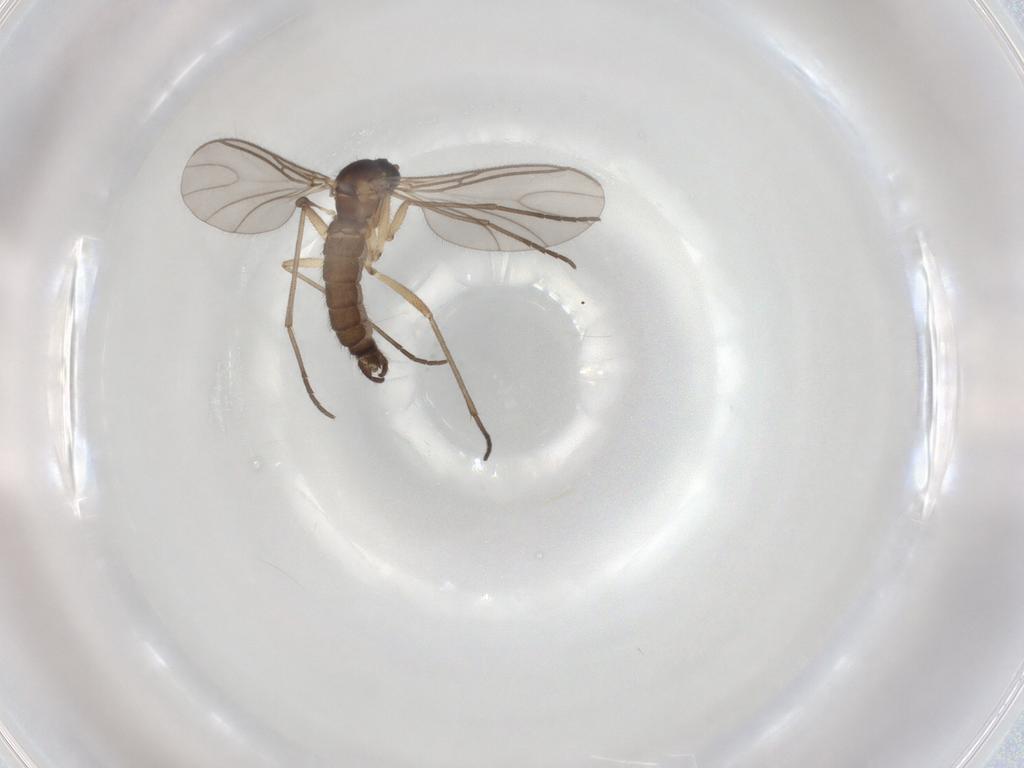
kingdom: Animalia
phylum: Arthropoda
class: Insecta
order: Diptera
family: Sciaridae
